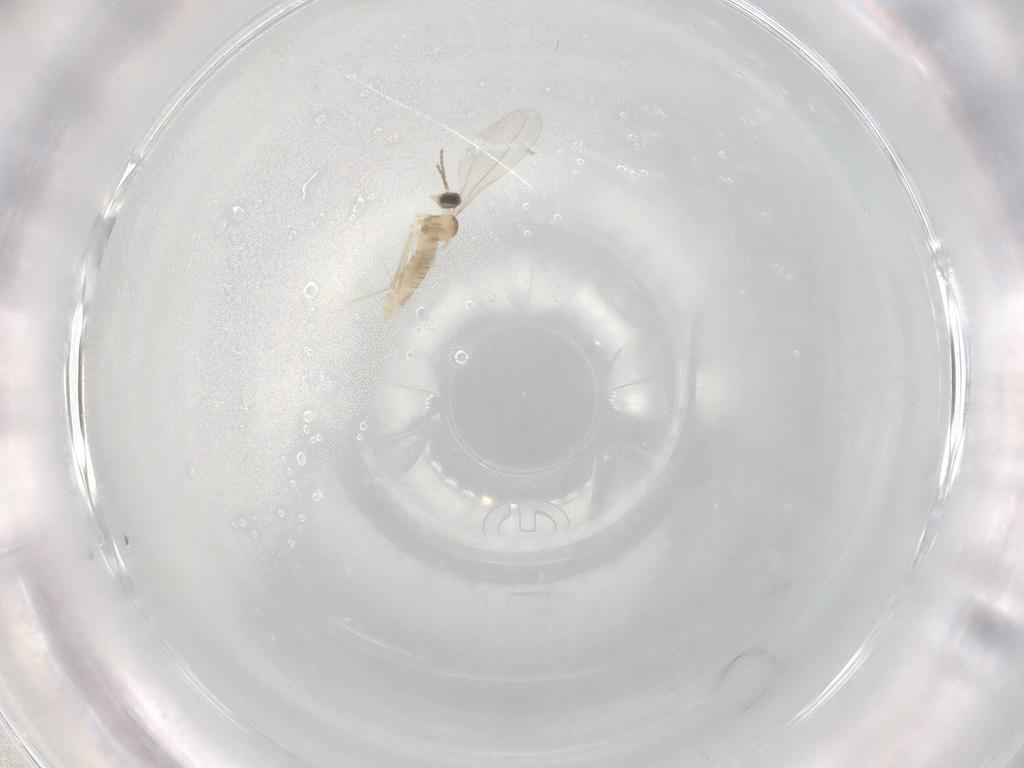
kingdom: Animalia
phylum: Arthropoda
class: Insecta
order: Diptera
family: Cecidomyiidae
